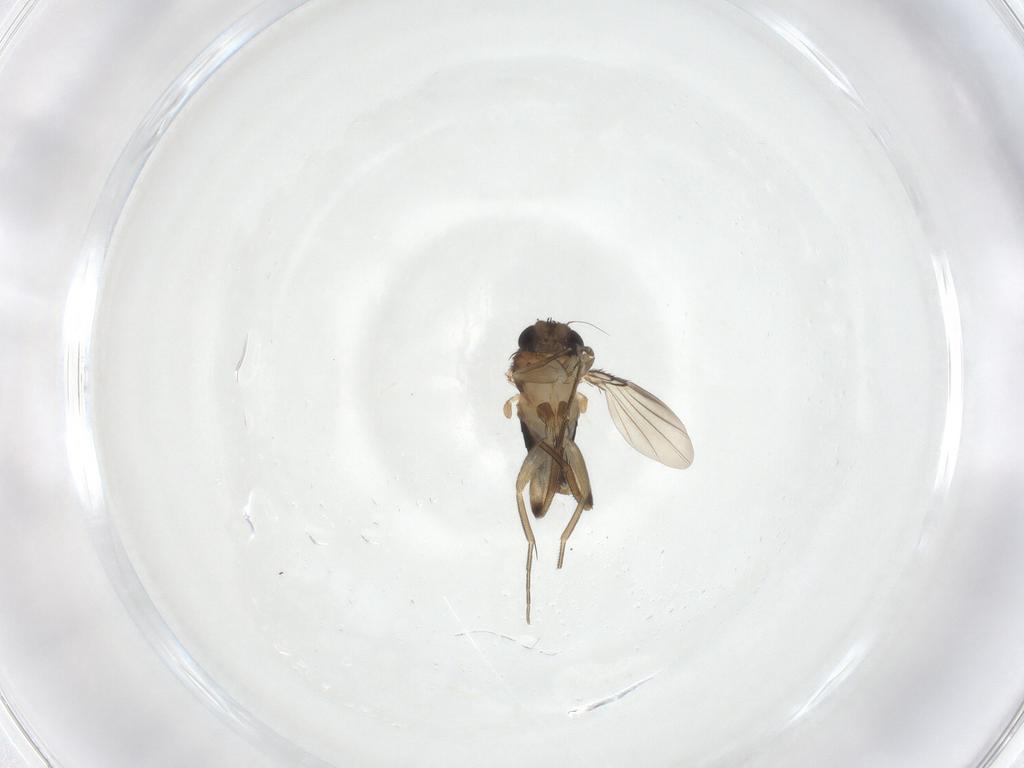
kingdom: Animalia
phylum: Arthropoda
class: Insecta
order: Diptera
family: Phoridae
